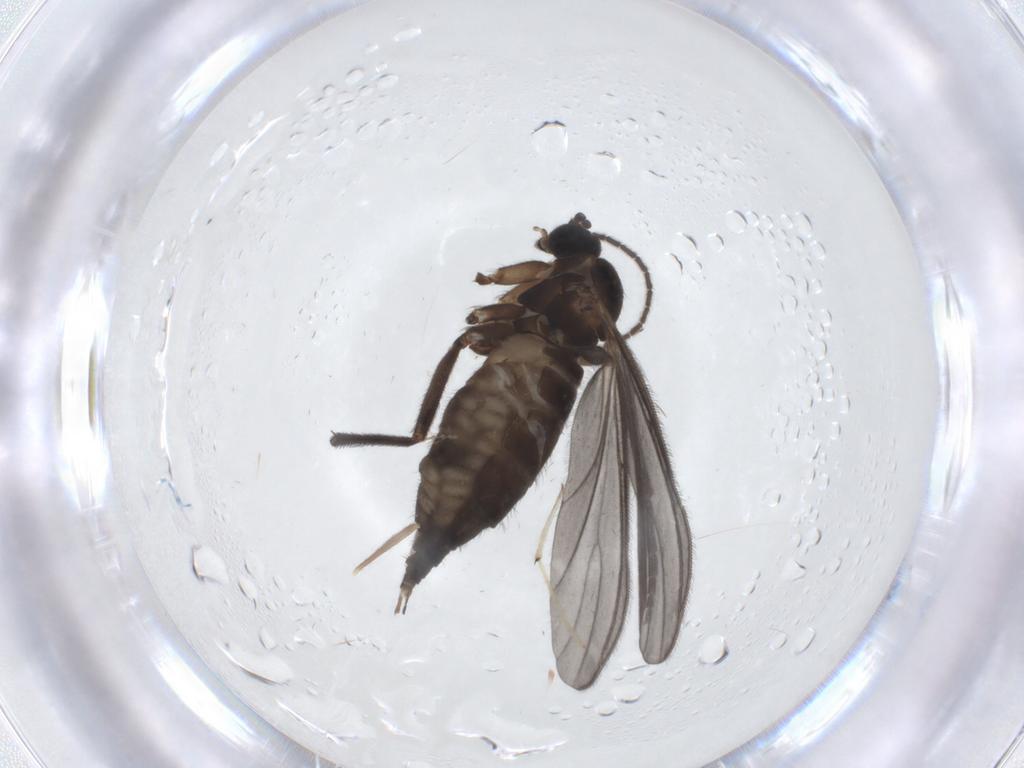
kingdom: Animalia
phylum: Arthropoda
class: Insecta
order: Diptera
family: Sciaridae
